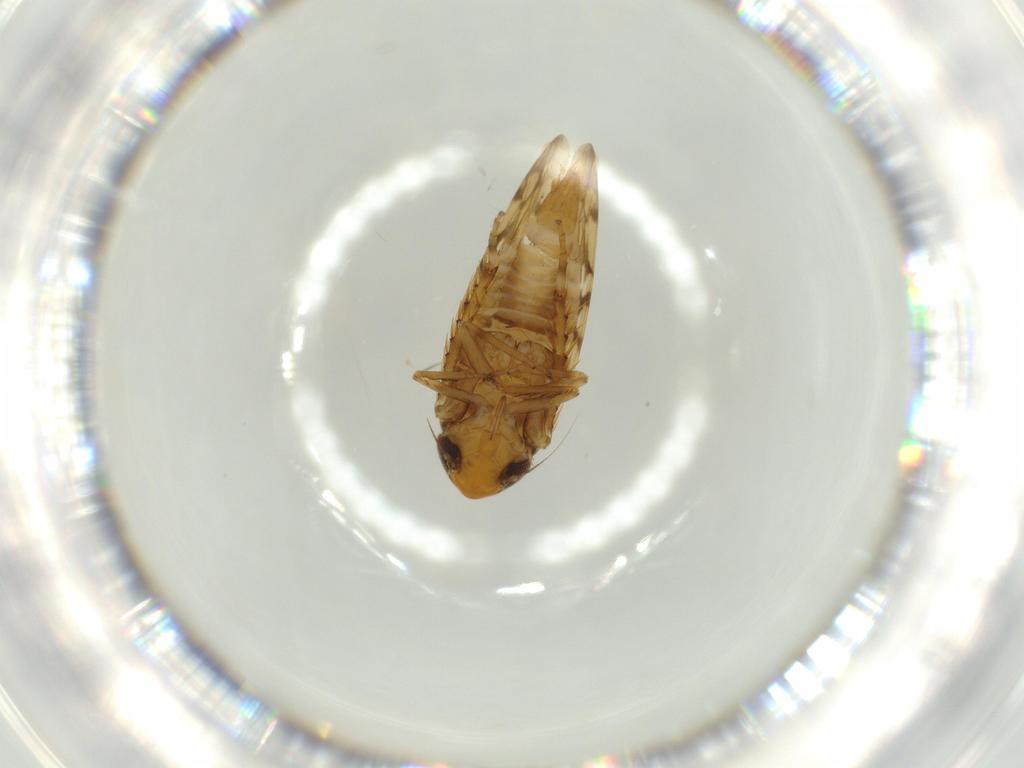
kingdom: Animalia
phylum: Arthropoda
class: Insecta
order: Hemiptera
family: Cicadellidae
